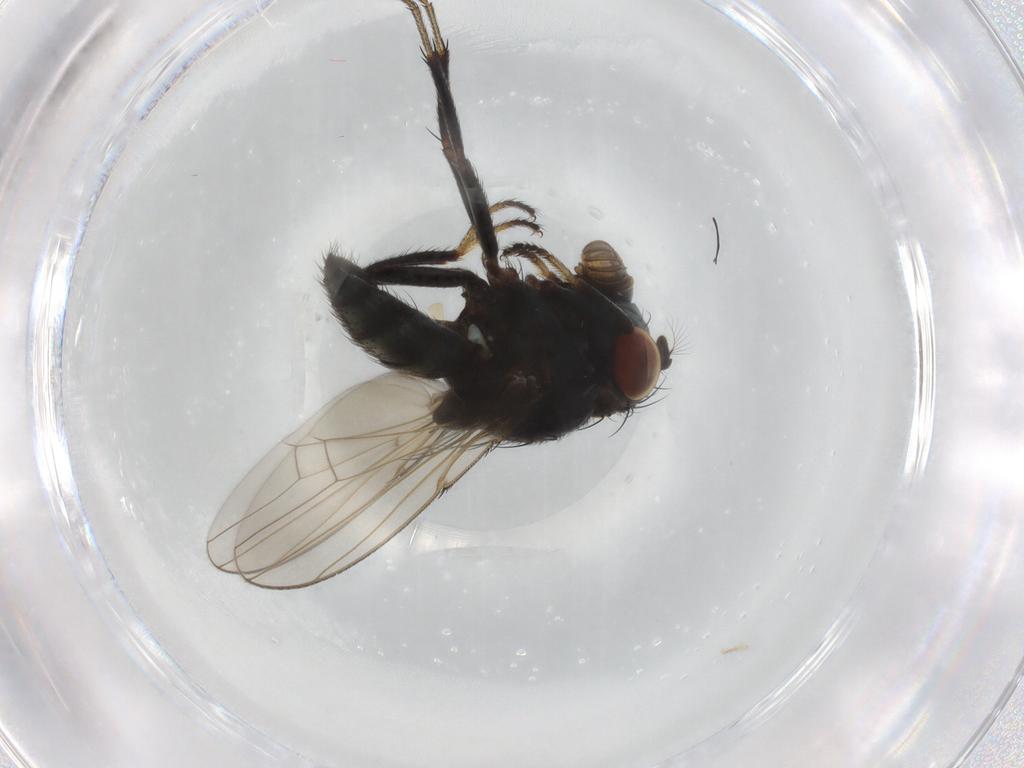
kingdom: Animalia
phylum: Arthropoda
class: Insecta
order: Diptera
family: Ephydridae
